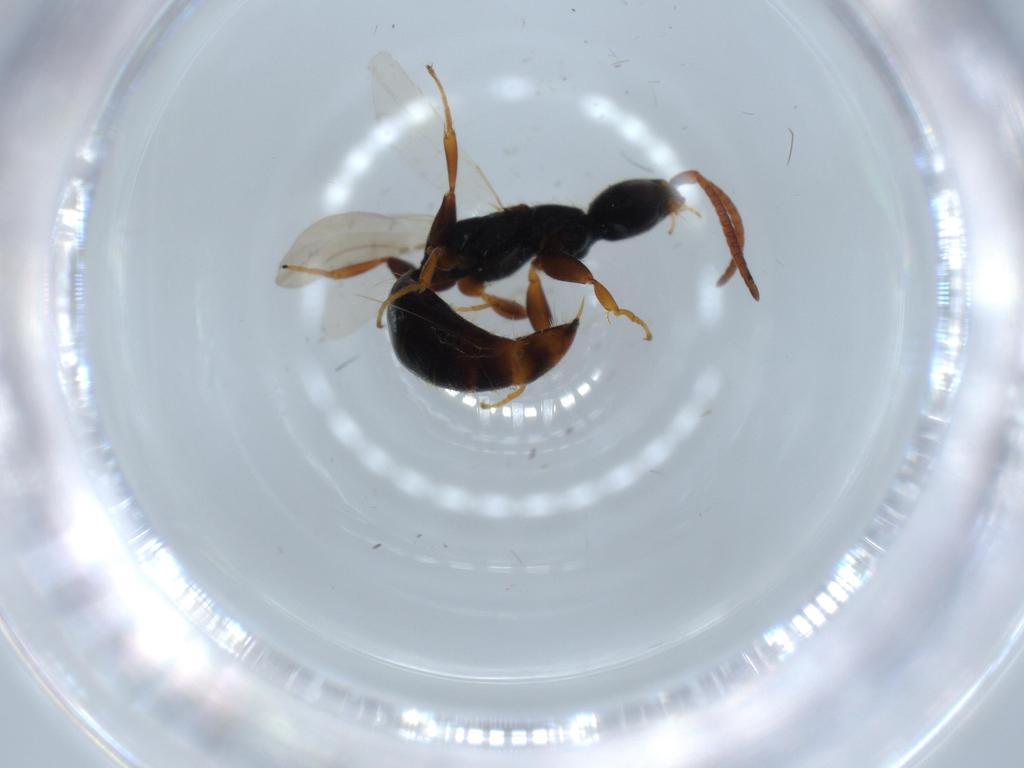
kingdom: Animalia
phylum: Arthropoda
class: Insecta
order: Hymenoptera
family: Bethylidae
